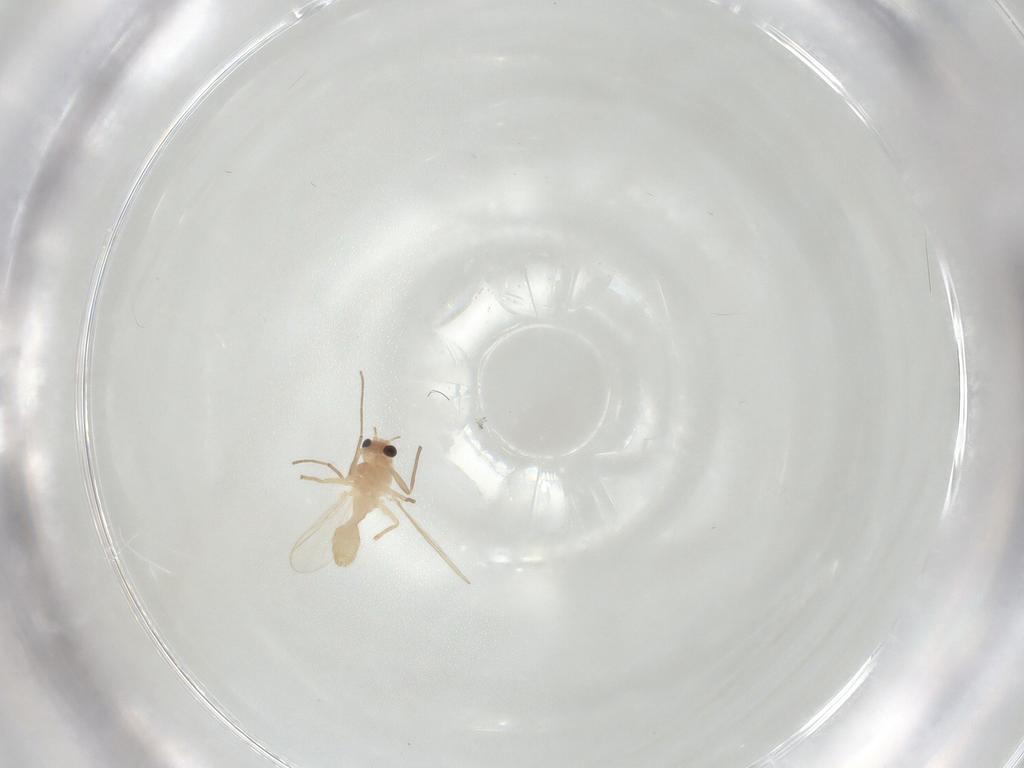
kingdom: Animalia
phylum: Arthropoda
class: Insecta
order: Diptera
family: Chironomidae
